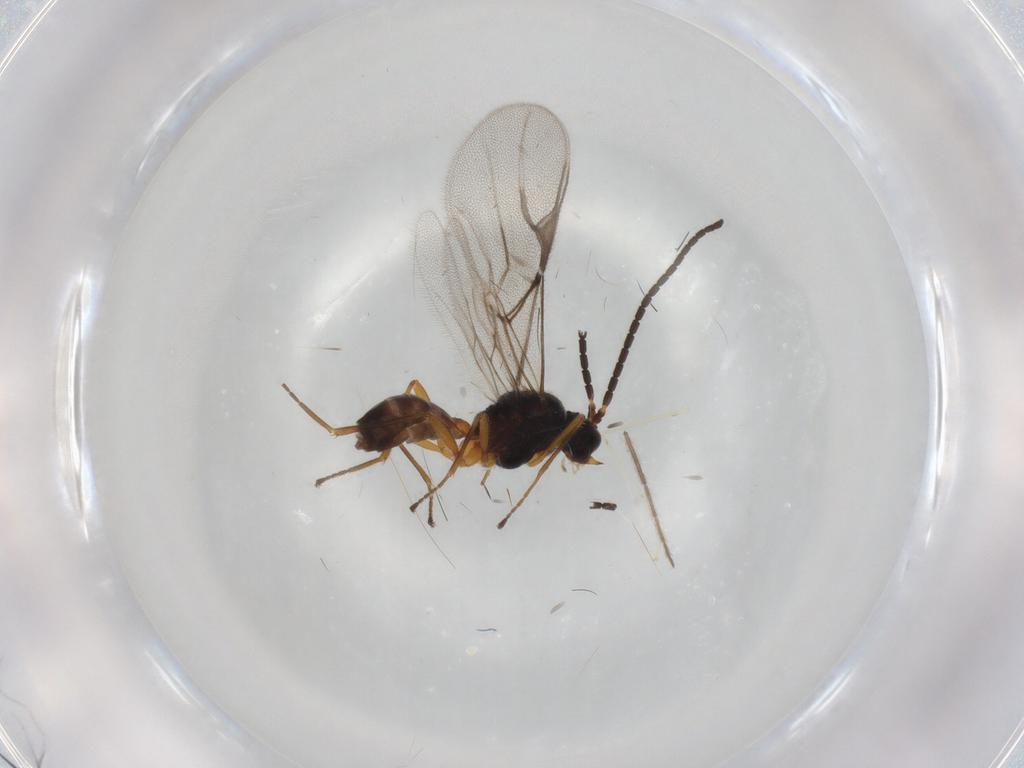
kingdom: Animalia
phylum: Arthropoda
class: Insecta
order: Hymenoptera
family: Braconidae
